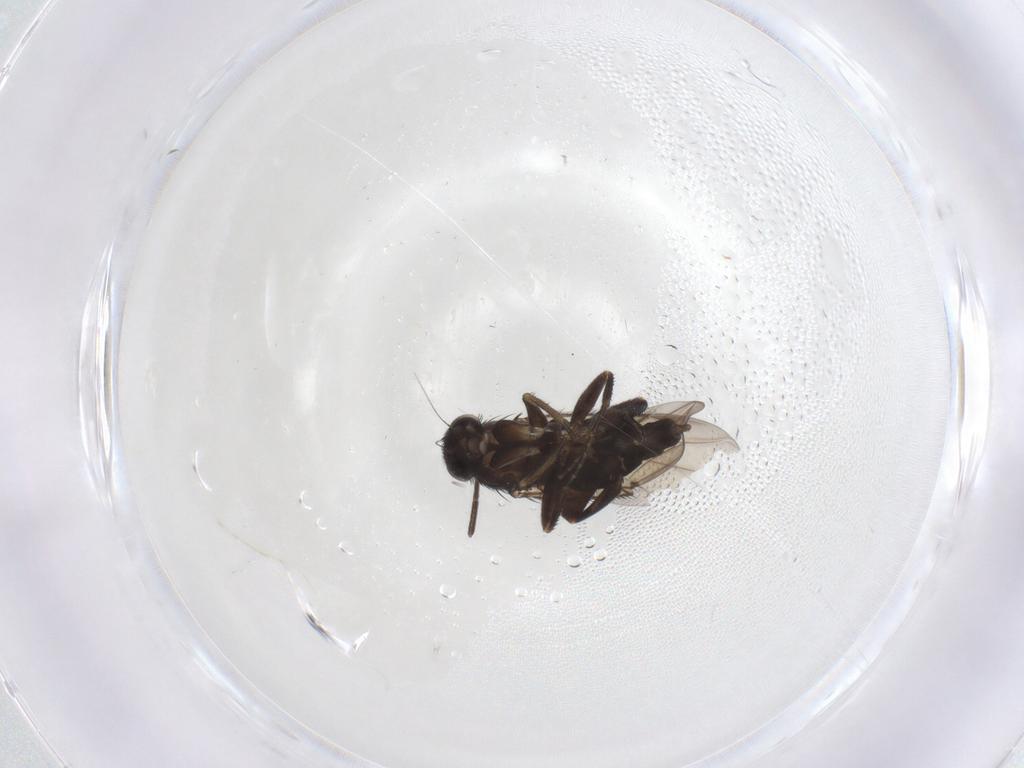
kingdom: Animalia
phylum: Arthropoda
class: Insecta
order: Diptera
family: Phoridae
